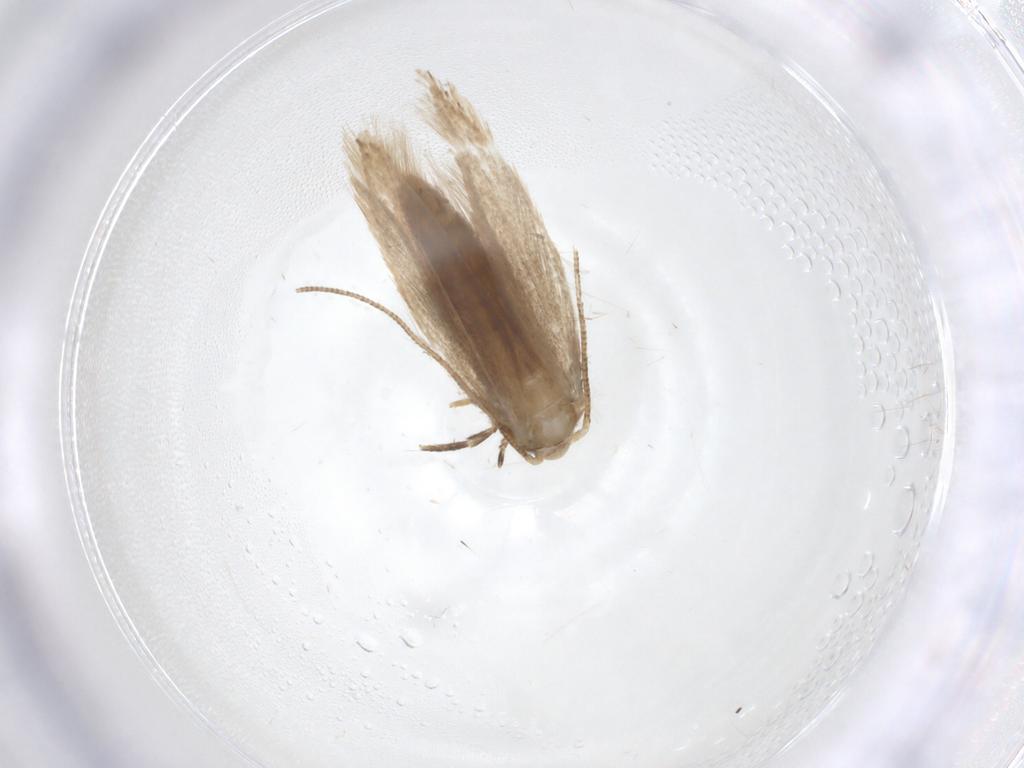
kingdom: Animalia
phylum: Arthropoda
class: Insecta
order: Lepidoptera
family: Tineidae
